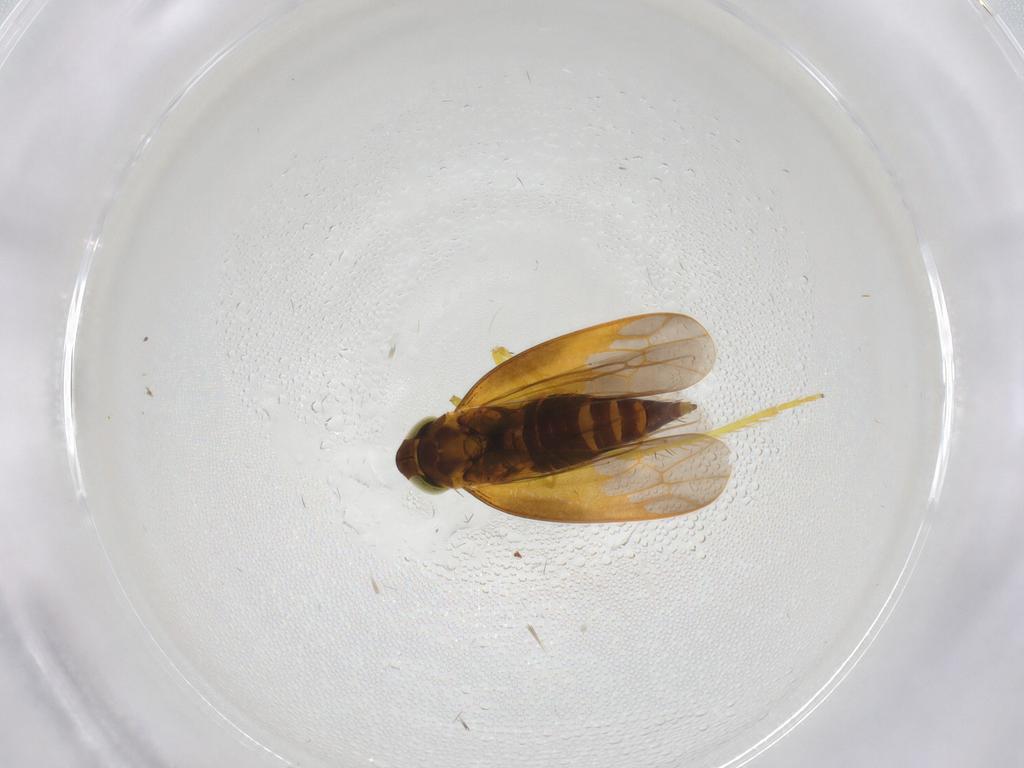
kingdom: Animalia
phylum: Arthropoda
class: Insecta
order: Hemiptera
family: Cicadellidae
